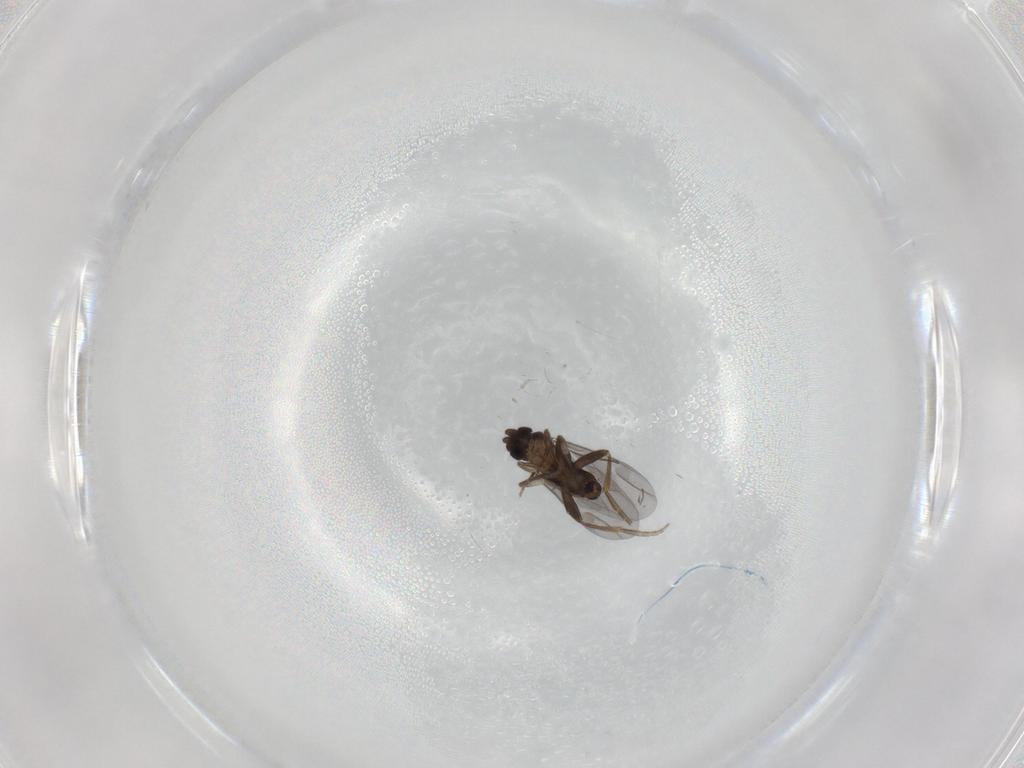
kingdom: Animalia
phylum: Arthropoda
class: Insecta
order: Diptera
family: Phoridae
